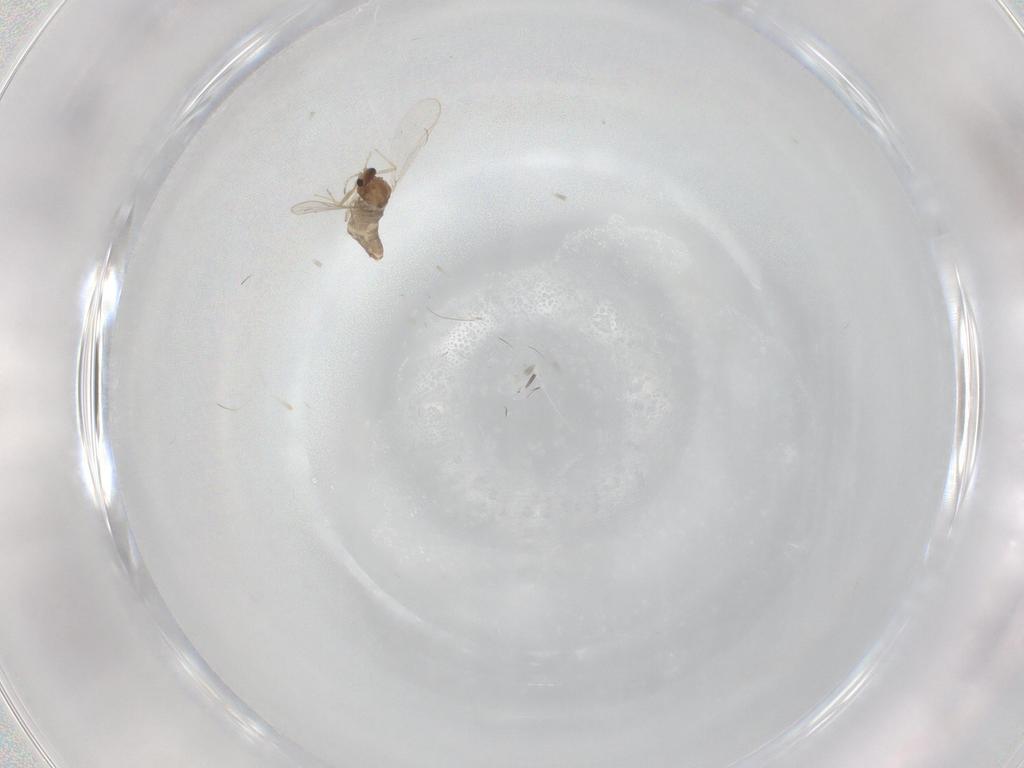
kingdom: Animalia
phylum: Arthropoda
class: Insecta
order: Diptera
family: Chironomidae
